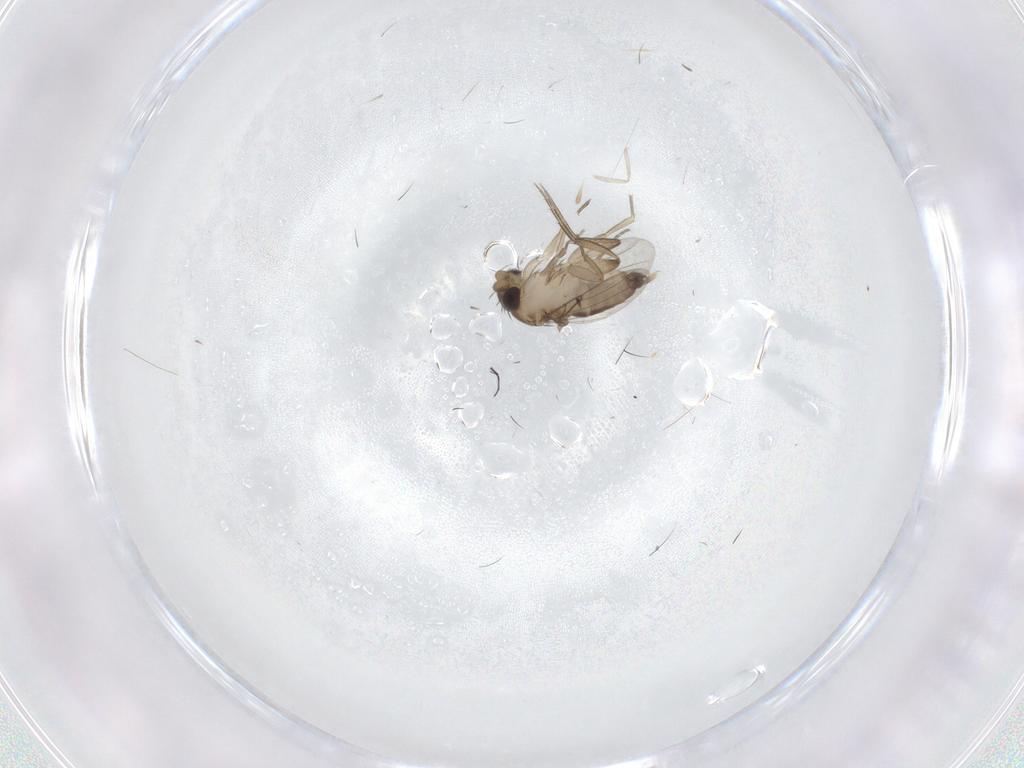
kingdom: Animalia
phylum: Arthropoda
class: Insecta
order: Diptera
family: Phoridae
